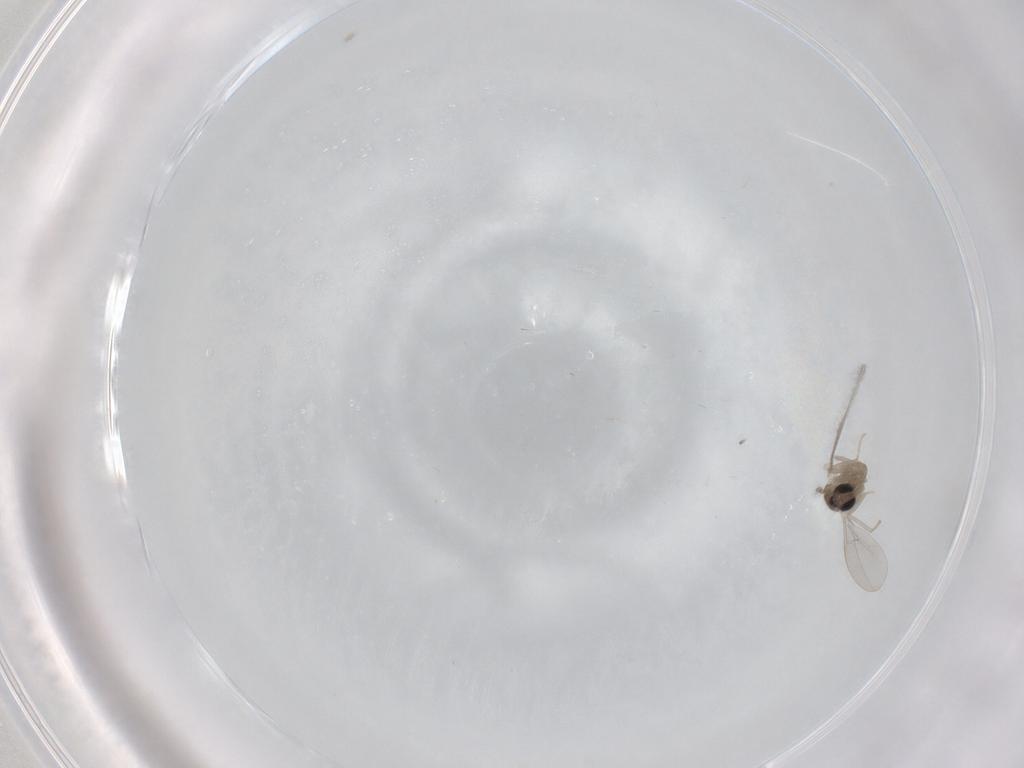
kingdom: Animalia
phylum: Arthropoda
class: Insecta
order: Diptera
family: Cecidomyiidae
